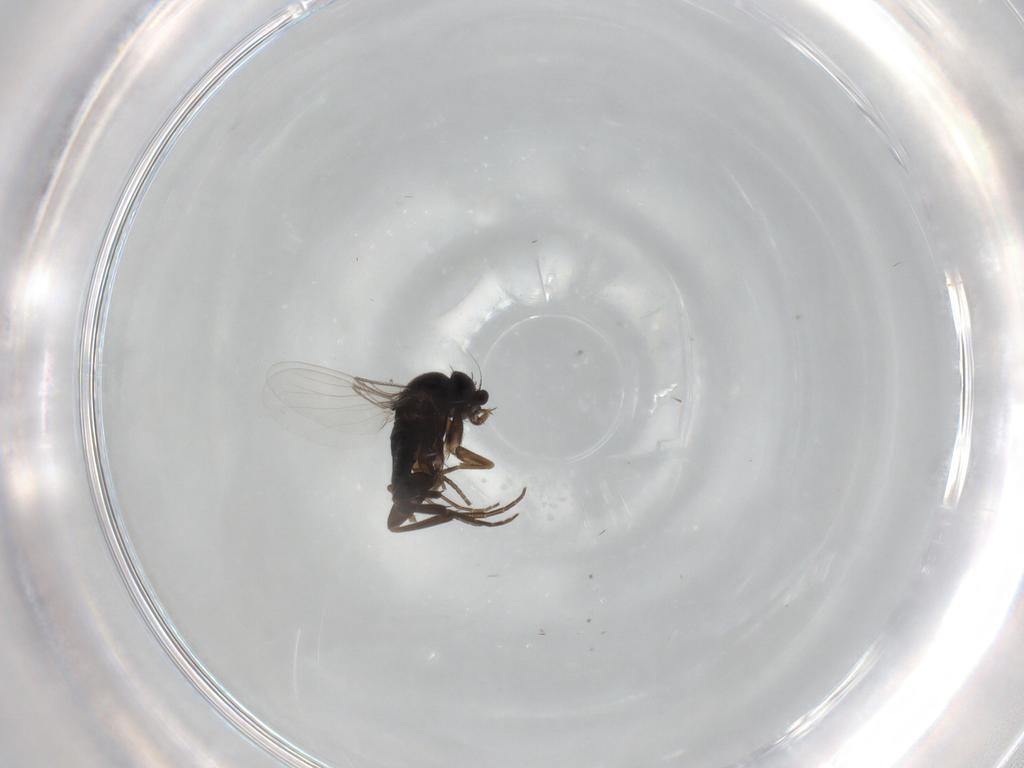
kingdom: Animalia
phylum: Arthropoda
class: Insecta
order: Diptera
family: Phoridae
